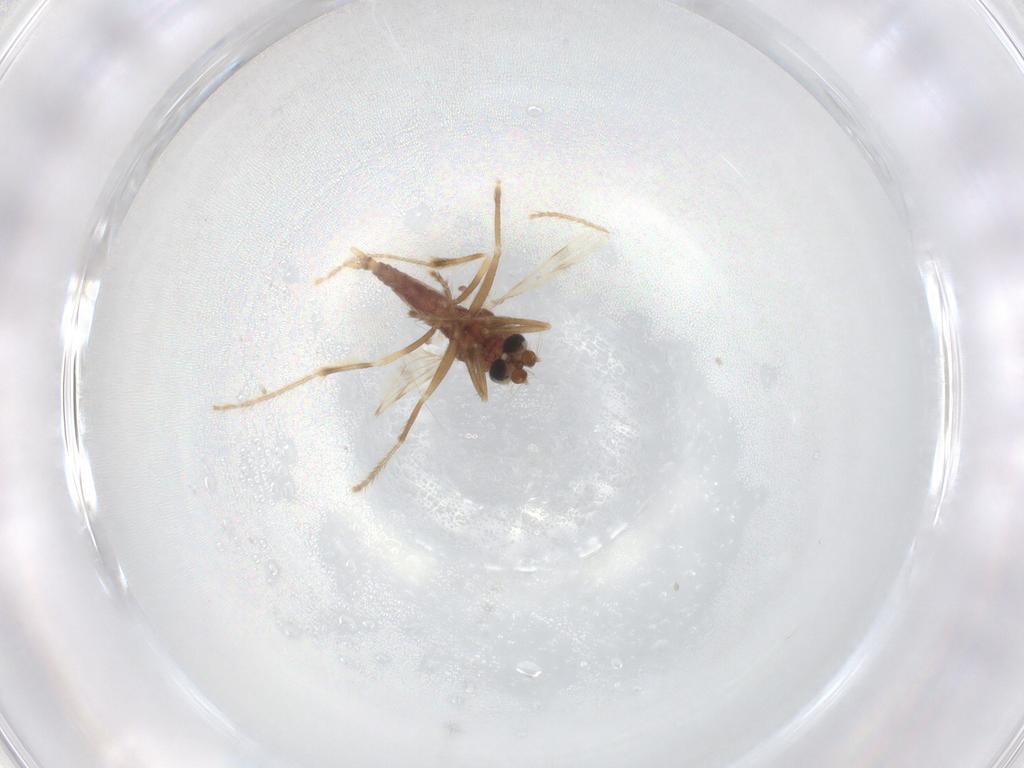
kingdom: Animalia
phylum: Arthropoda
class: Insecta
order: Diptera
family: Corethrellidae
